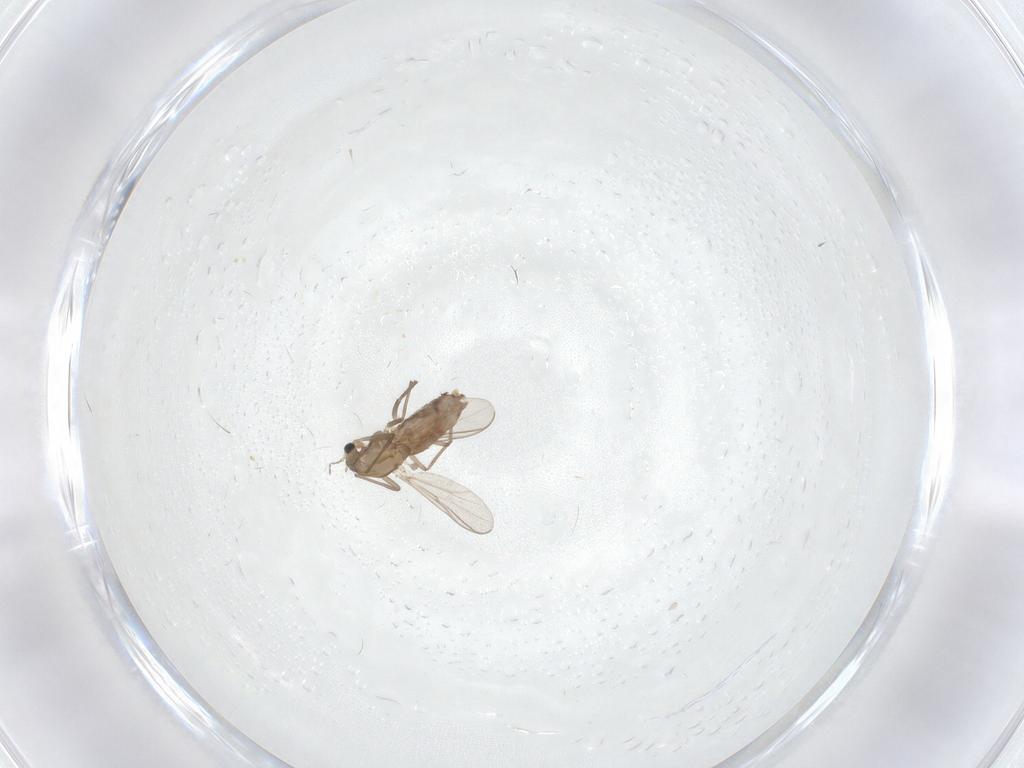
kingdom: Animalia
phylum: Arthropoda
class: Insecta
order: Diptera
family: Chironomidae
